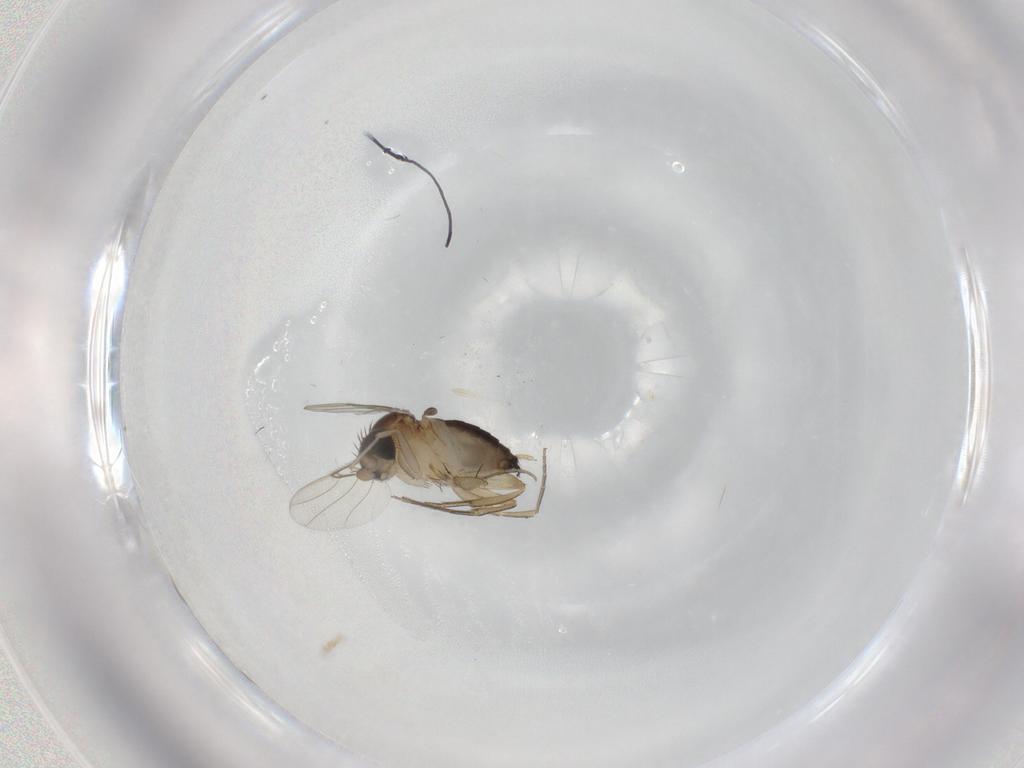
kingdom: Animalia
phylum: Arthropoda
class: Insecta
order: Diptera
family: Phoridae
